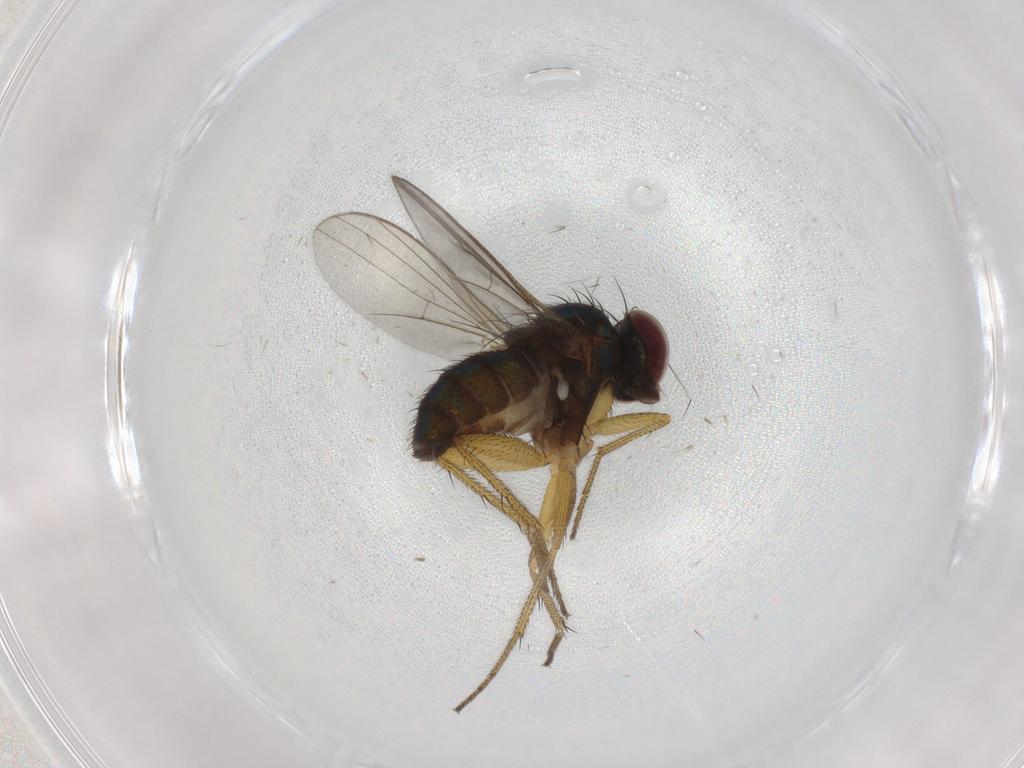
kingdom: Animalia
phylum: Arthropoda
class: Insecta
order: Diptera
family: Dolichopodidae
